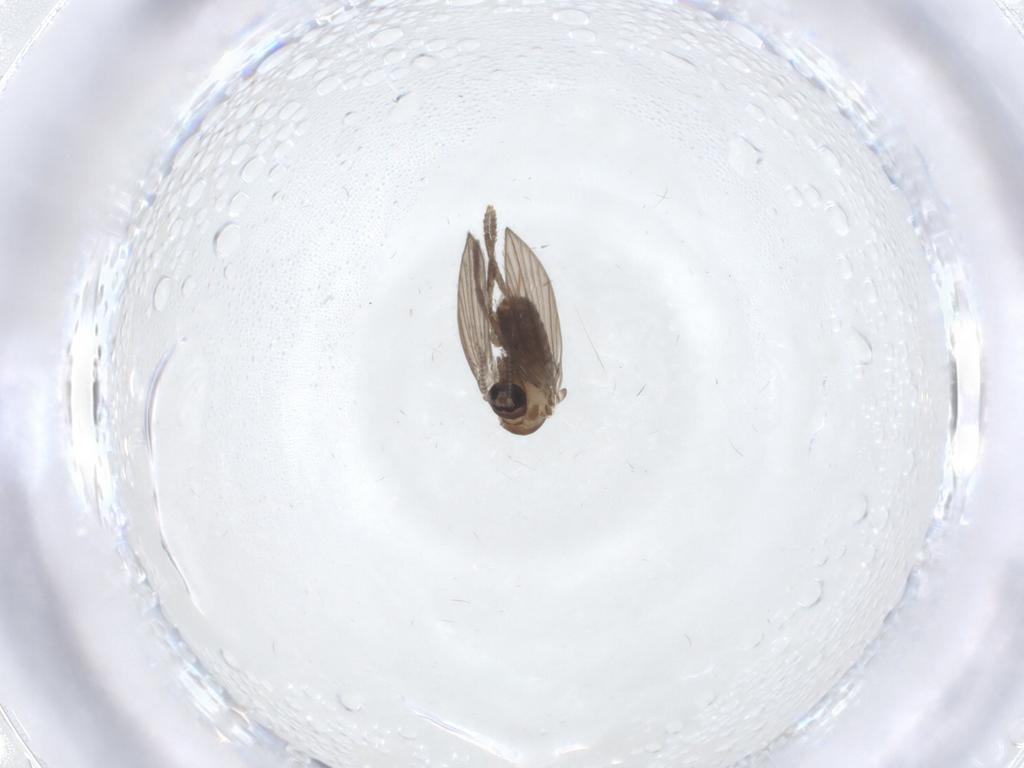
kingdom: Animalia
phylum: Arthropoda
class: Insecta
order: Diptera
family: Psychodidae
